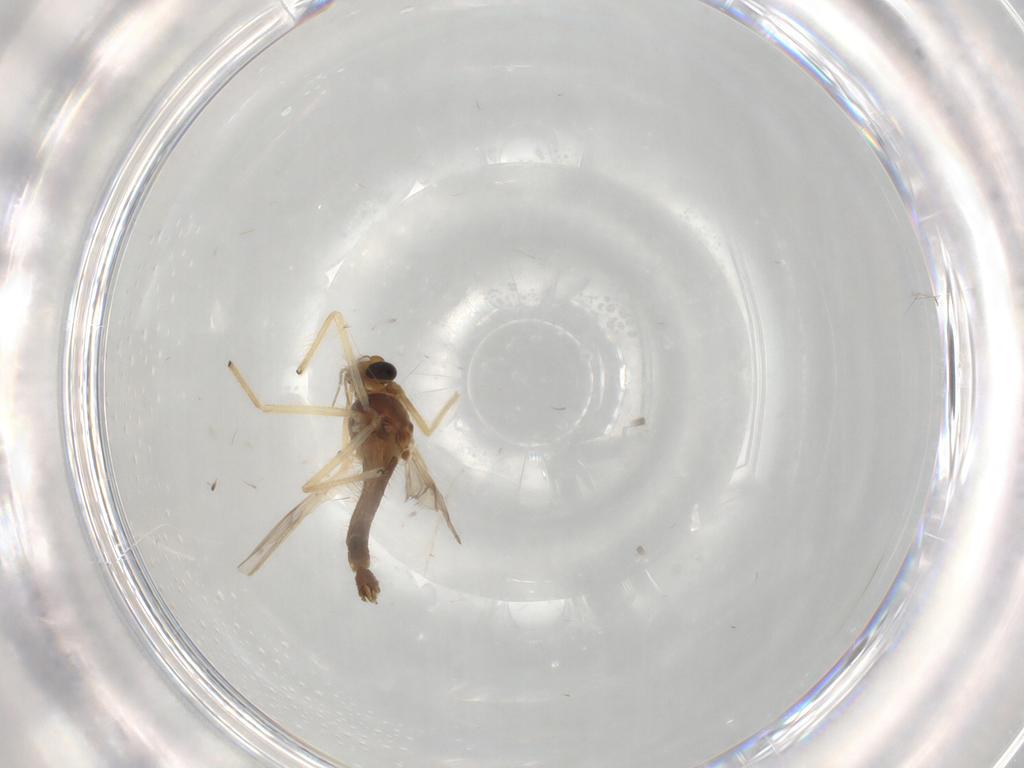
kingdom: Animalia
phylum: Arthropoda
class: Insecta
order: Diptera
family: Chironomidae
